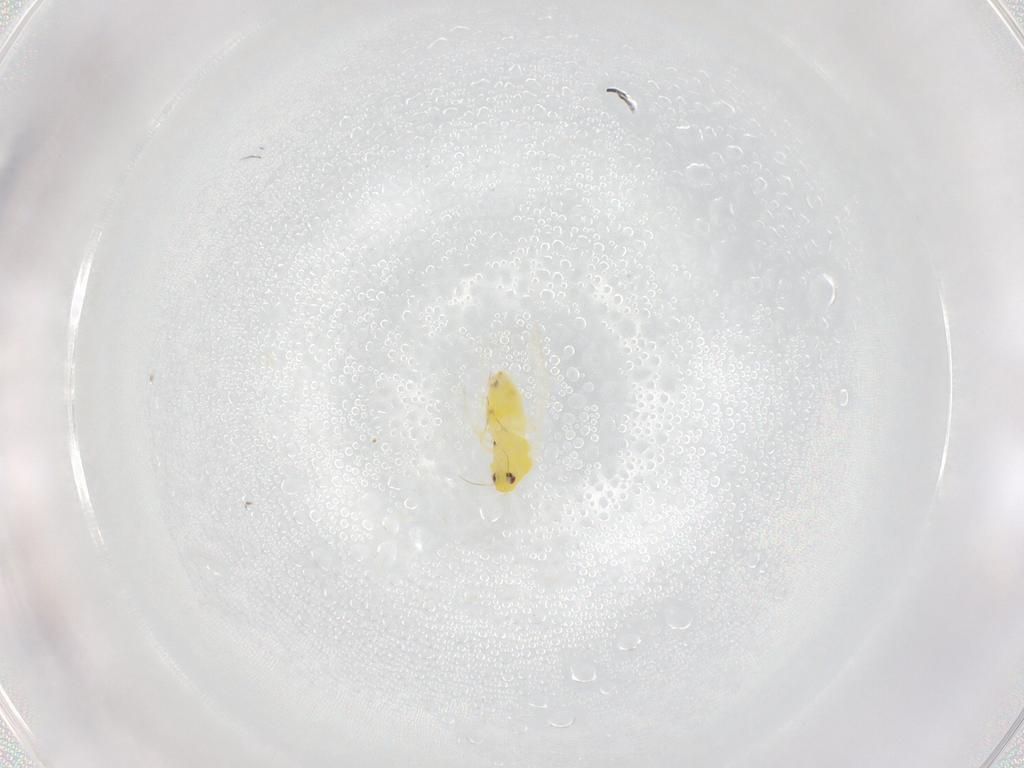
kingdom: Animalia
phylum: Arthropoda
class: Insecta
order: Hemiptera
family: Aleyrodidae
